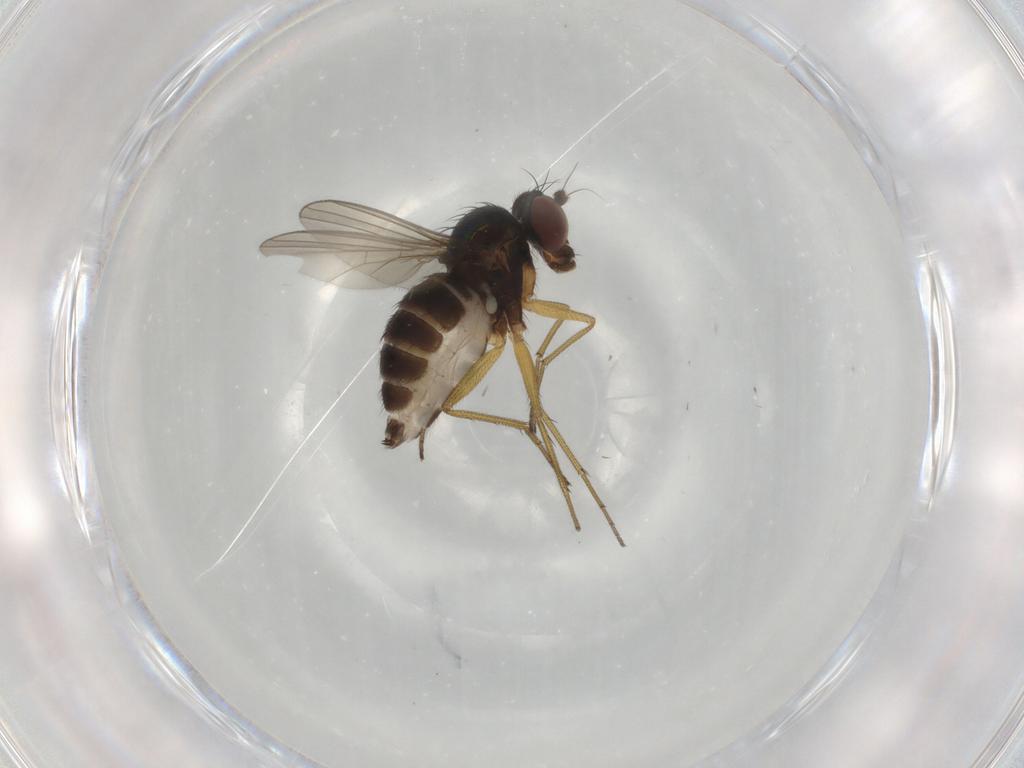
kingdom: Animalia
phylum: Arthropoda
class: Insecta
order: Diptera
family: Dolichopodidae
